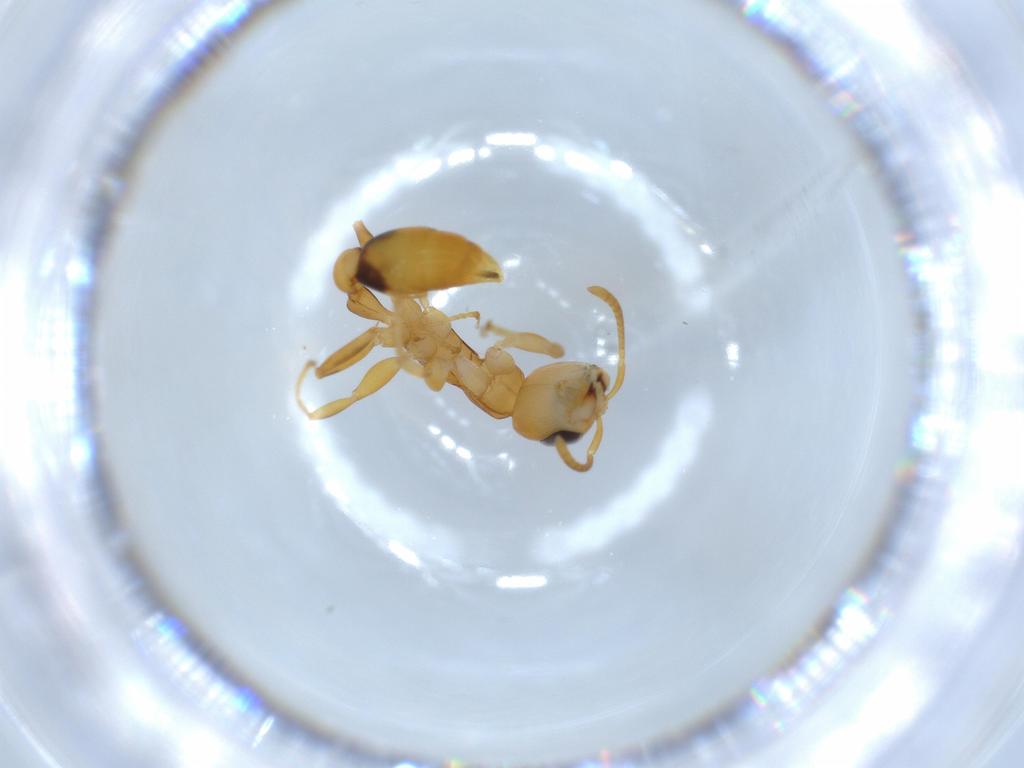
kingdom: Animalia
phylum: Arthropoda
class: Insecta
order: Hymenoptera
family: Formicidae
